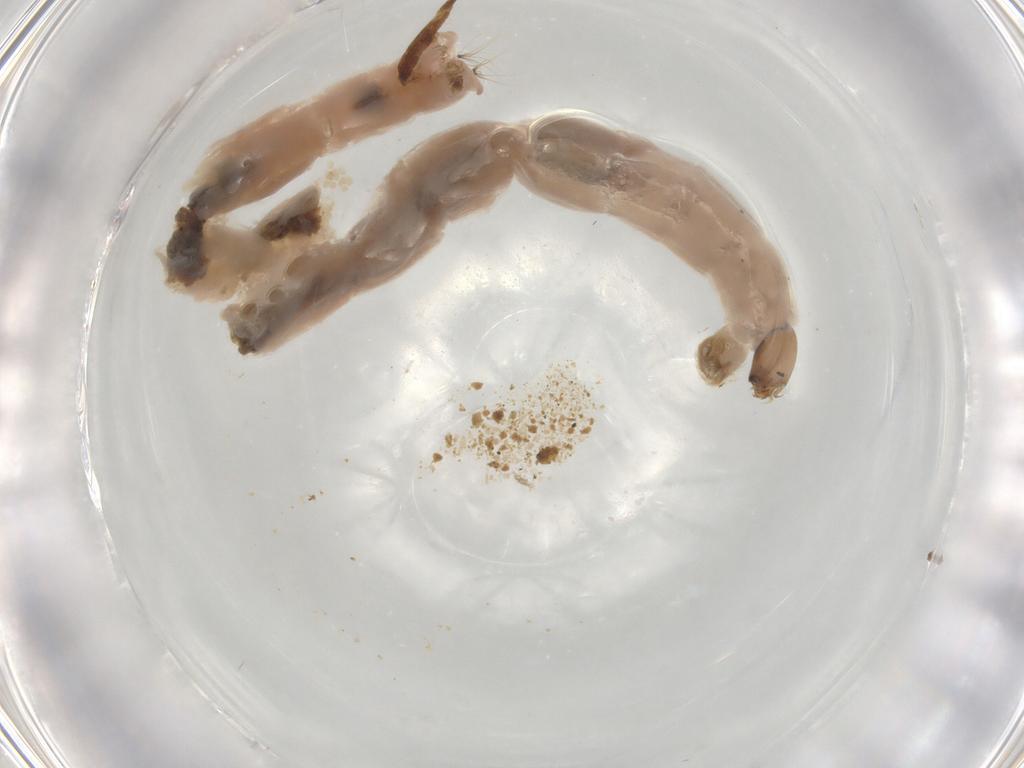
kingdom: Animalia
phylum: Arthropoda
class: Insecta
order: Diptera
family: Chironomidae
